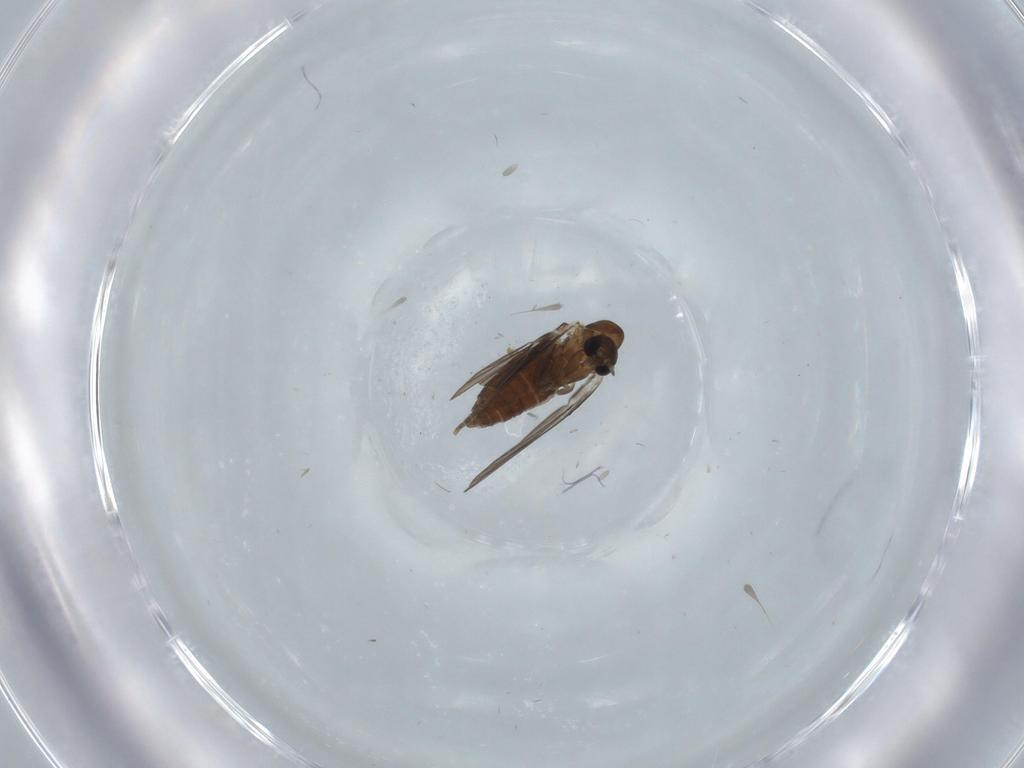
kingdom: Animalia
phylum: Arthropoda
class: Insecta
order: Diptera
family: Psychodidae
